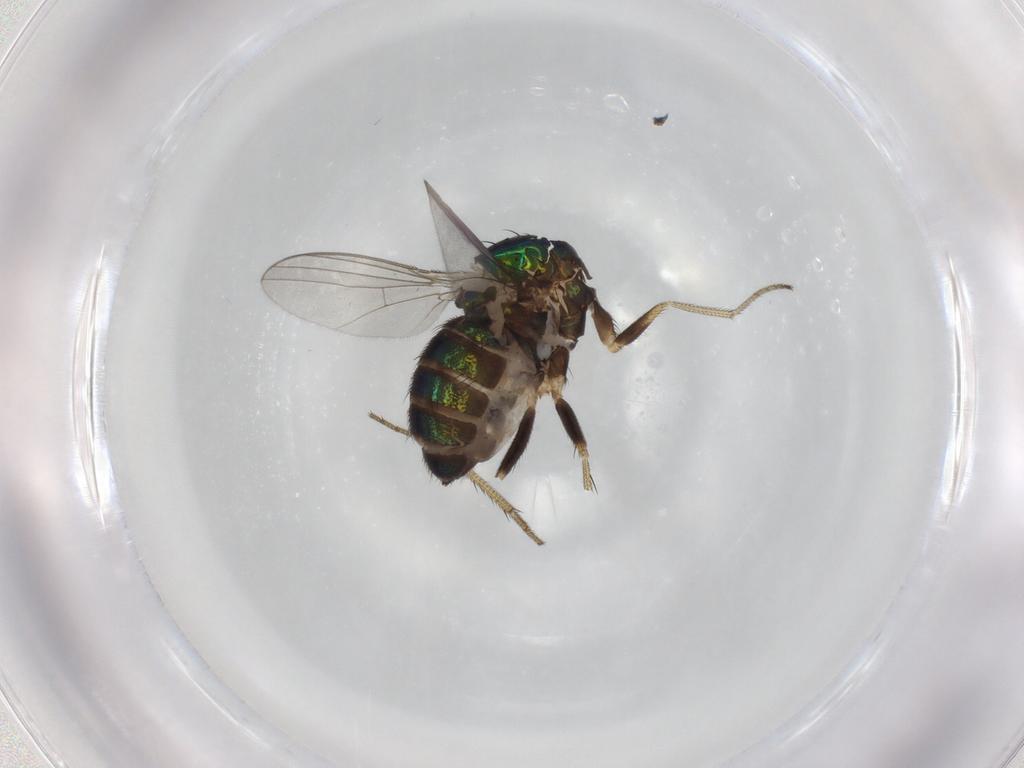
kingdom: Animalia
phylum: Arthropoda
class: Insecta
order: Diptera
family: Dolichopodidae
